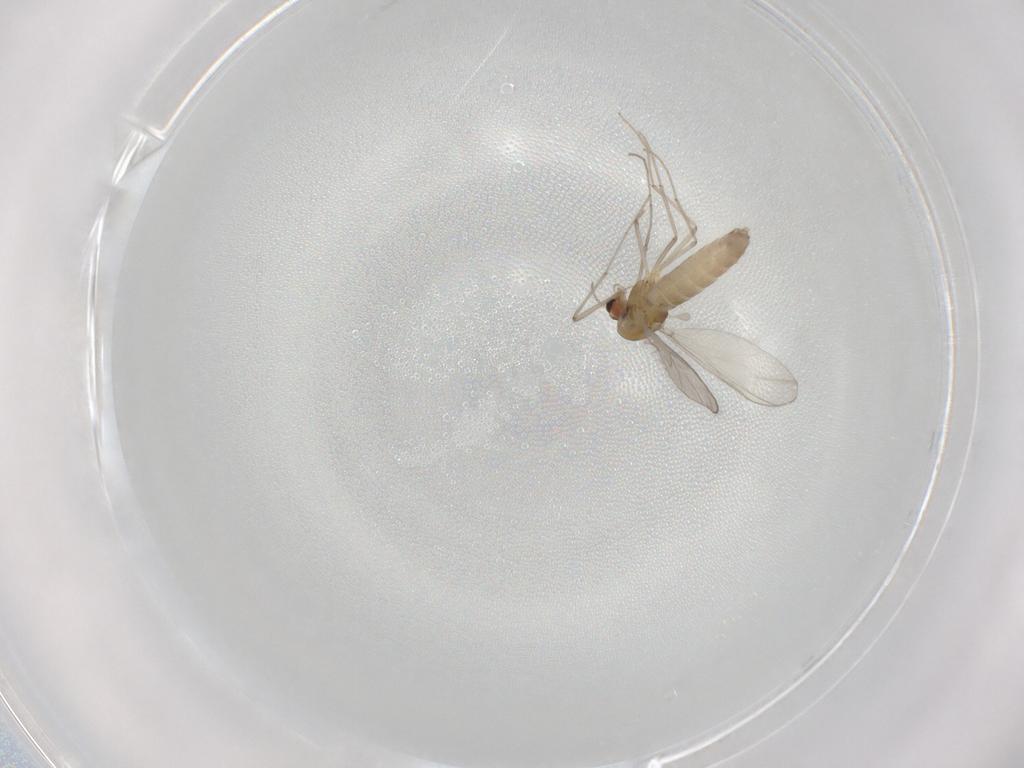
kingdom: Animalia
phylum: Arthropoda
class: Insecta
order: Diptera
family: Chironomidae
